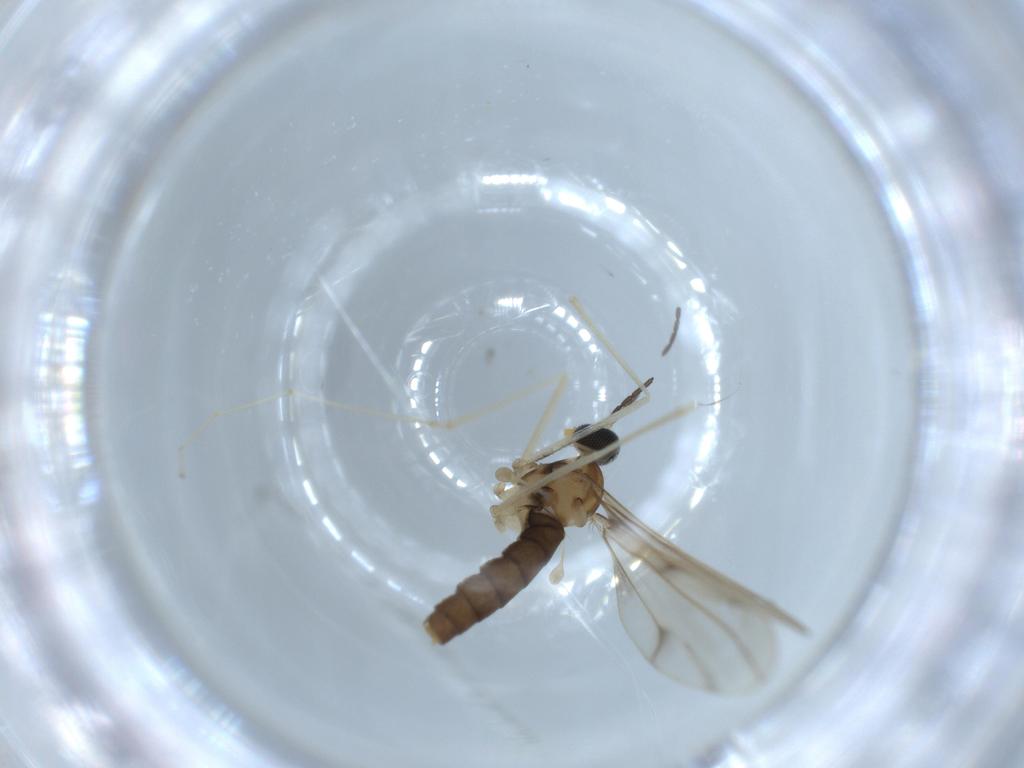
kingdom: Animalia
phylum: Arthropoda
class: Insecta
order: Diptera
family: Cecidomyiidae
